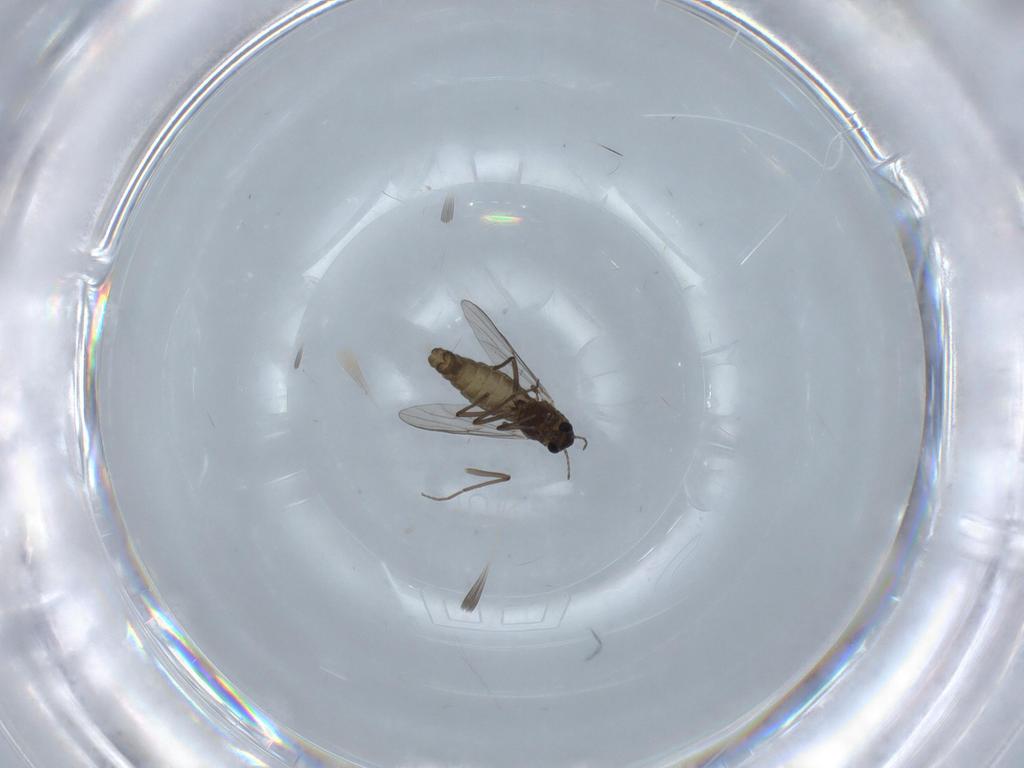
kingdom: Animalia
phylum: Arthropoda
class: Insecta
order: Diptera
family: Chironomidae
